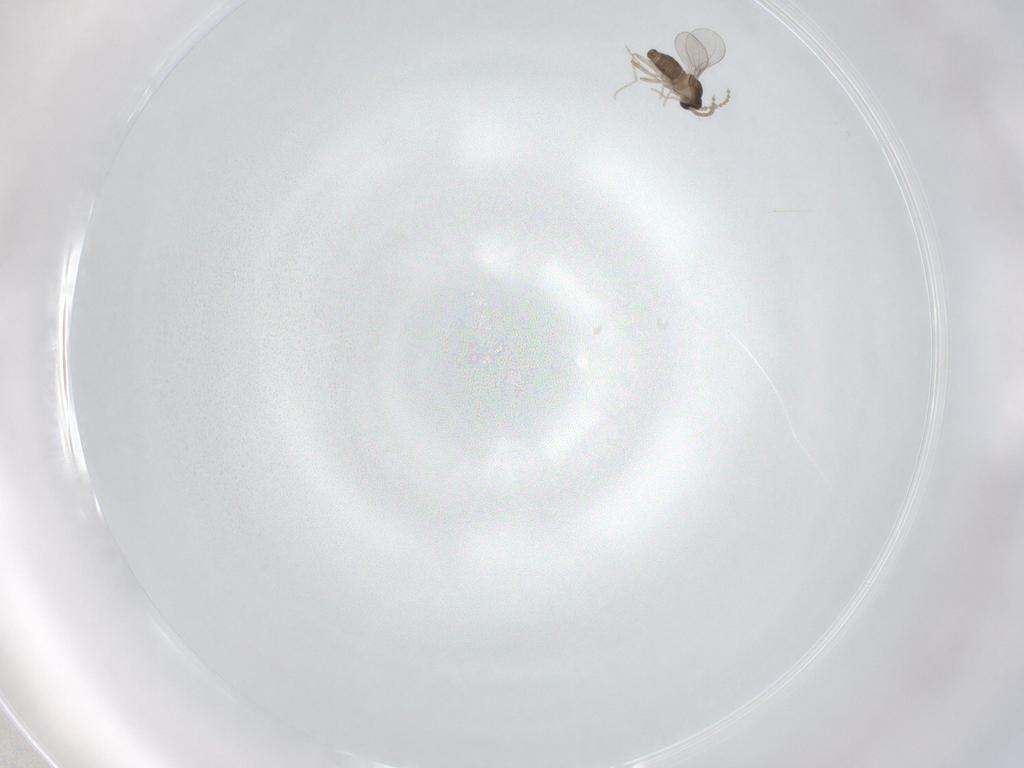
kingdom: Animalia
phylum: Arthropoda
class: Insecta
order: Diptera
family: Cecidomyiidae
